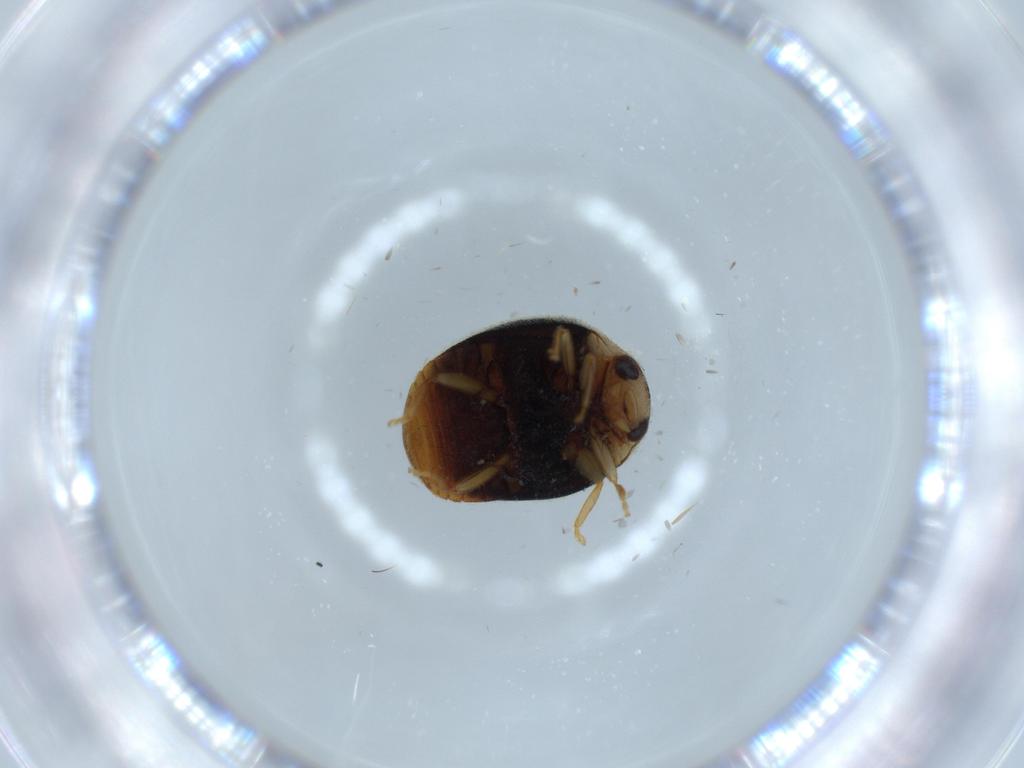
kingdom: Animalia
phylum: Arthropoda
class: Insecta
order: Coleoptera
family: Coccinellidae
